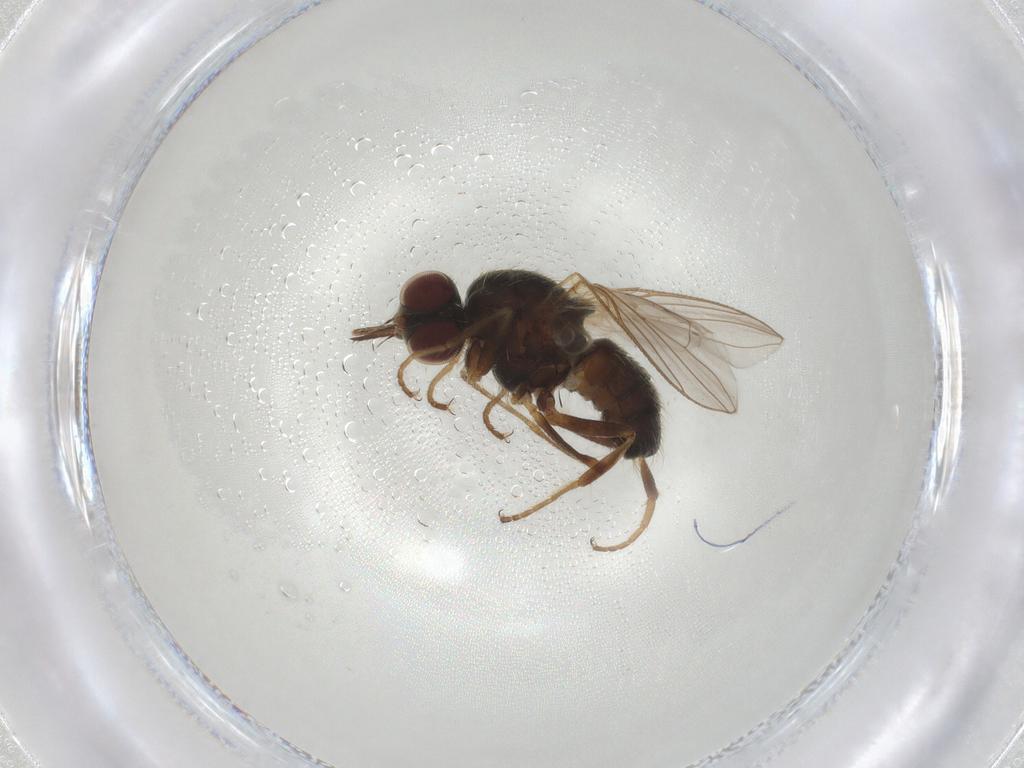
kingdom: Animalia
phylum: Arthropoda
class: Insecta
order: Diptera
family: Muscidae
